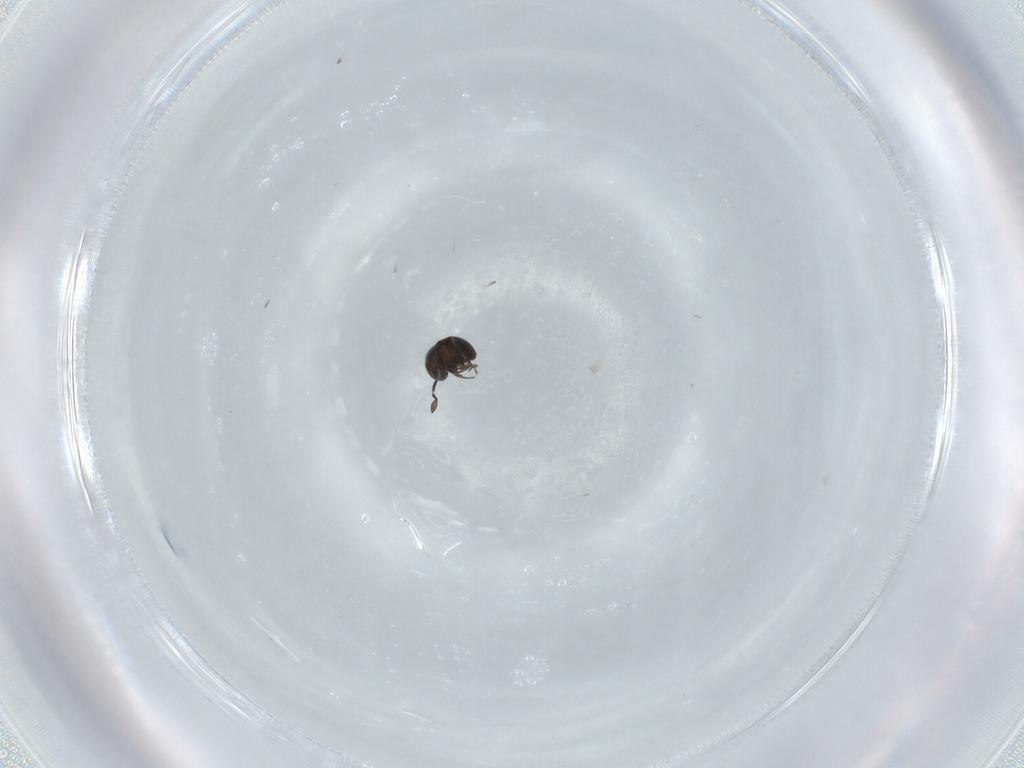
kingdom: Animalia
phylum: Arthropoda
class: Insecta
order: Hymenoptera
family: Scelionidae
